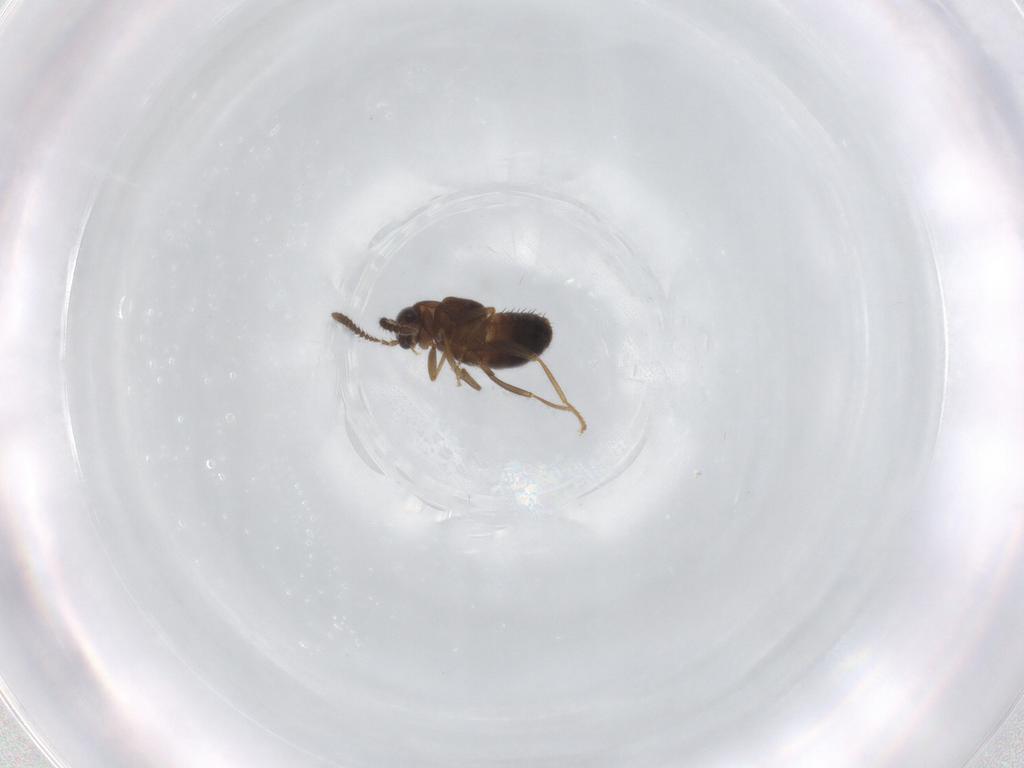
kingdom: Animalia
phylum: Arthropoda
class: Insecta
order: Coleoptera
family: Staphylinidae
